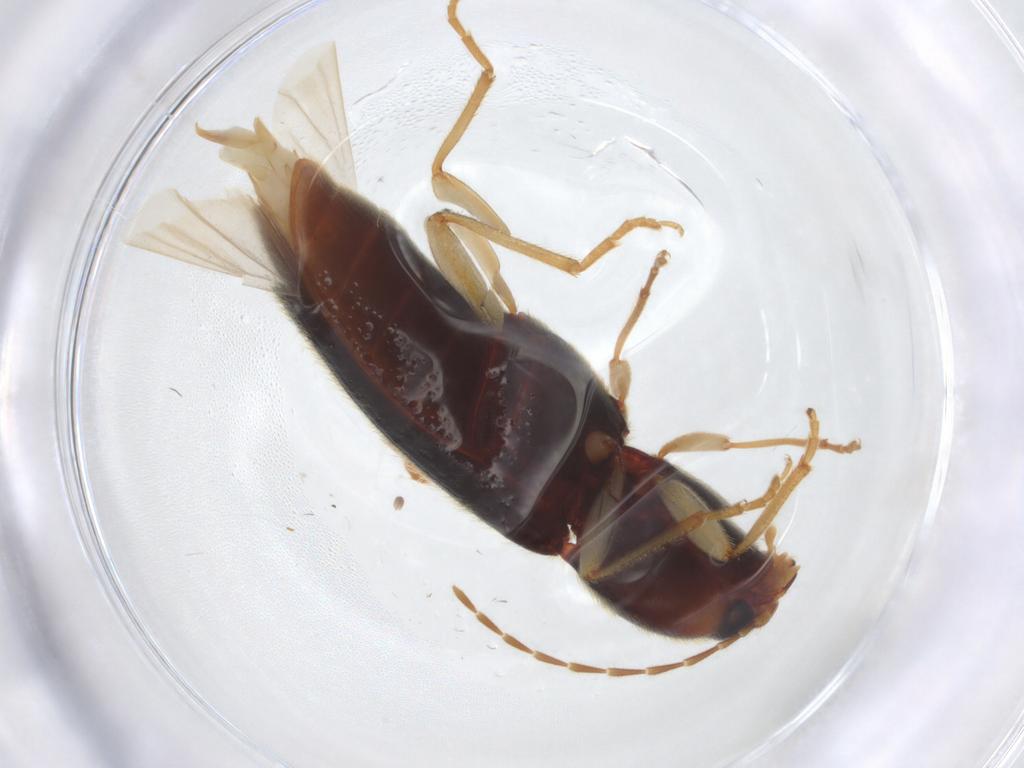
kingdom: Animalia
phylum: Arthropoda
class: Insecta
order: Coleoptera
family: Elateridae
